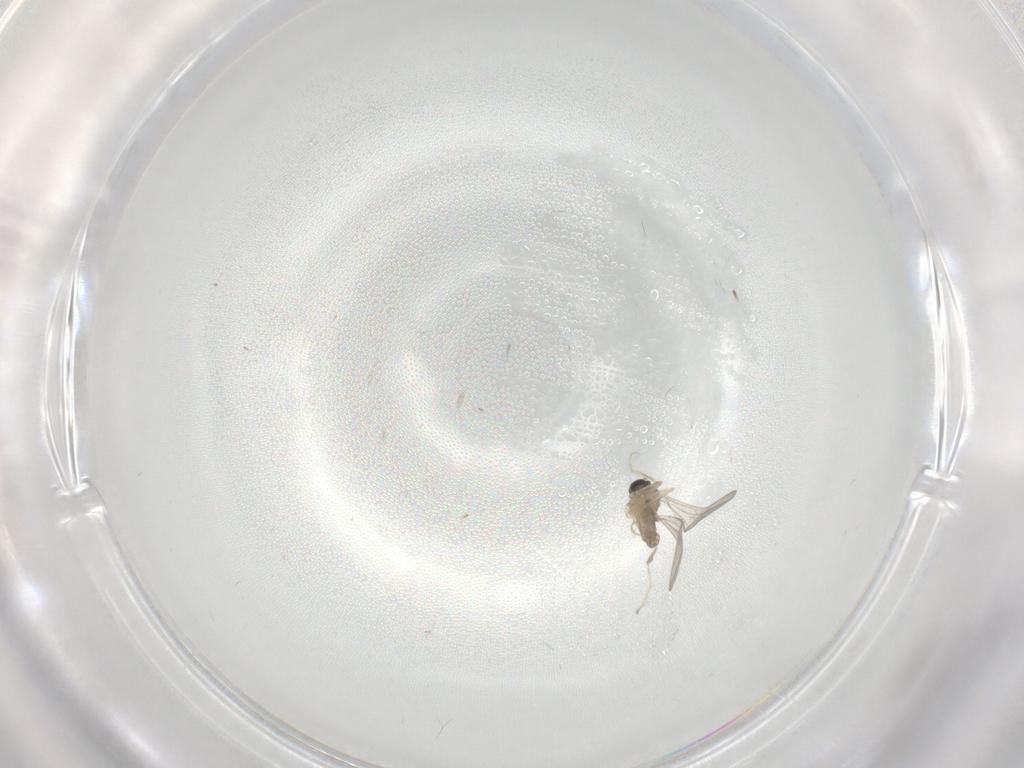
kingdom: Animalia
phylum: Arthropoda
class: Insecta
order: Diptera
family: Cecidomyiidae
